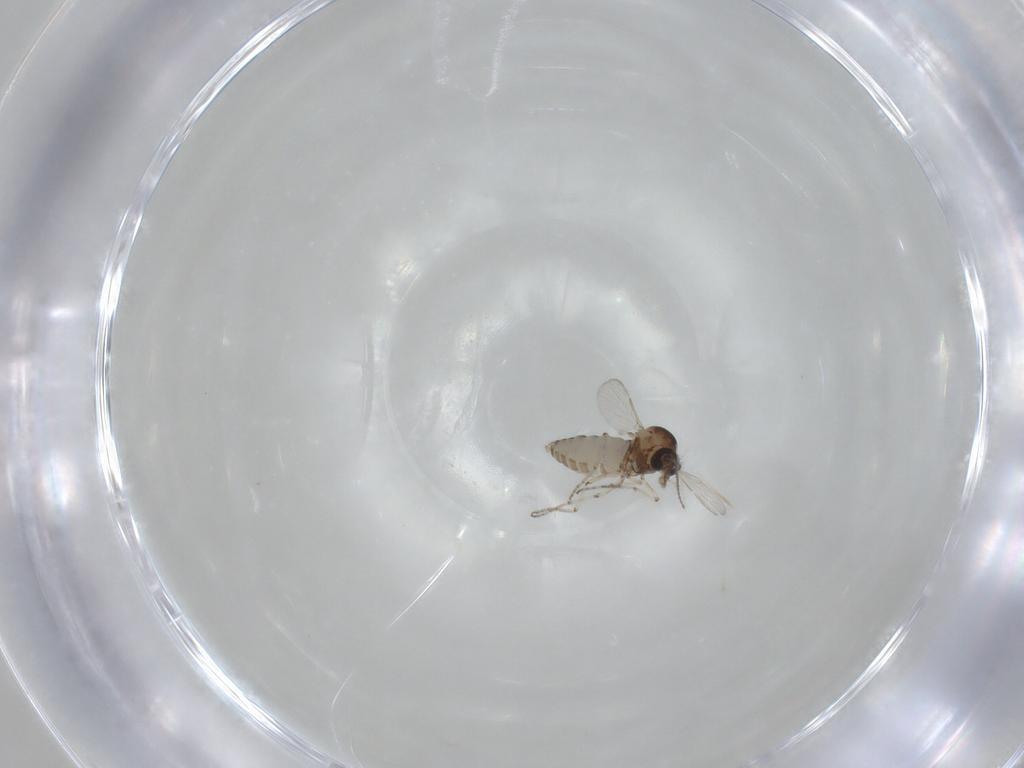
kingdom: Animalia
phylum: Arthropoda
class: Insecta
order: Diptera
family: Ceratopogonidae
